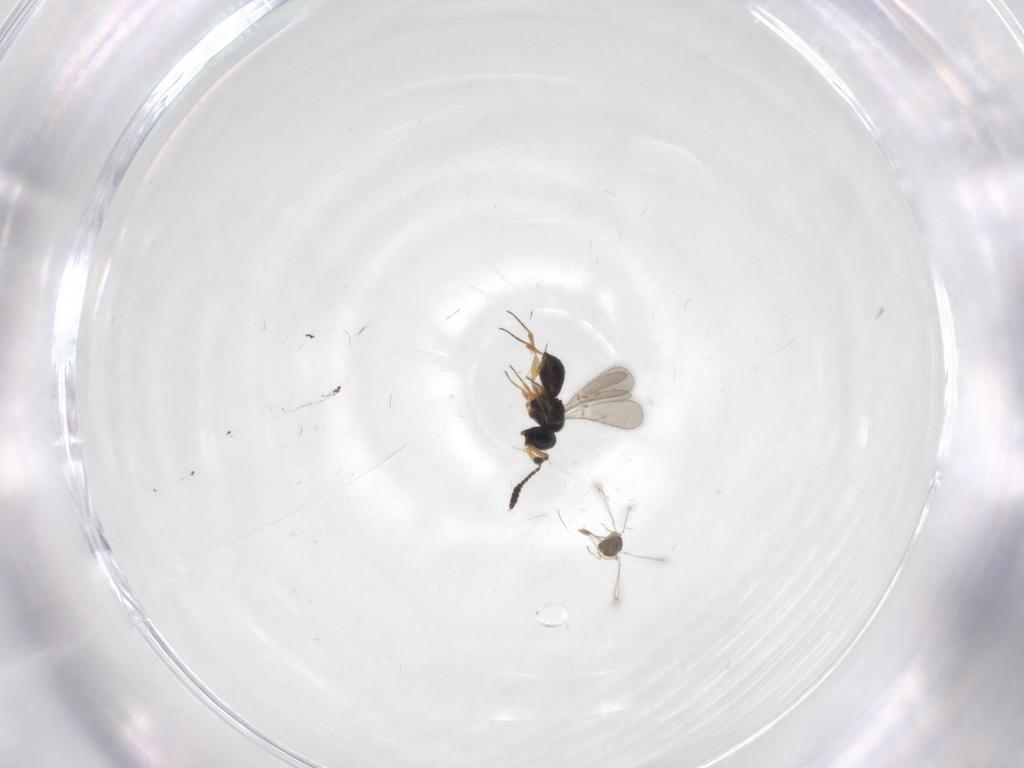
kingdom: Animalia
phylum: Arthropoda
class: Insecta
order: Hymenoptera
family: Scelionidae
